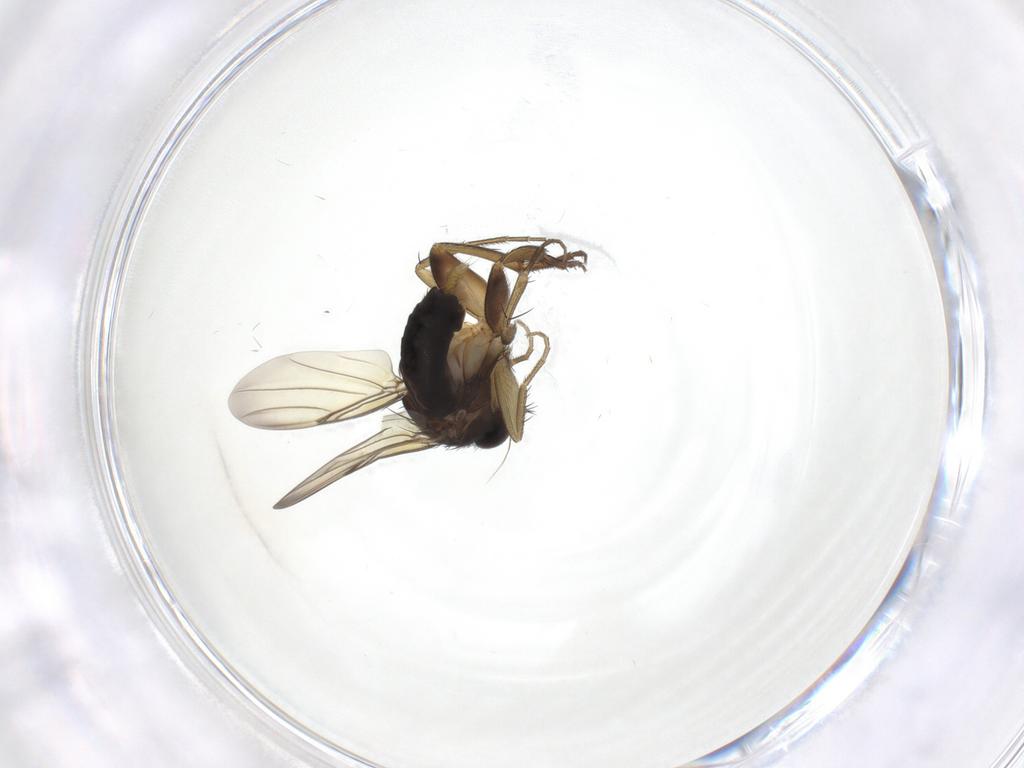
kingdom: Animalia
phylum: Arthropoda
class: Insecta
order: Diptera
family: Phoridae
